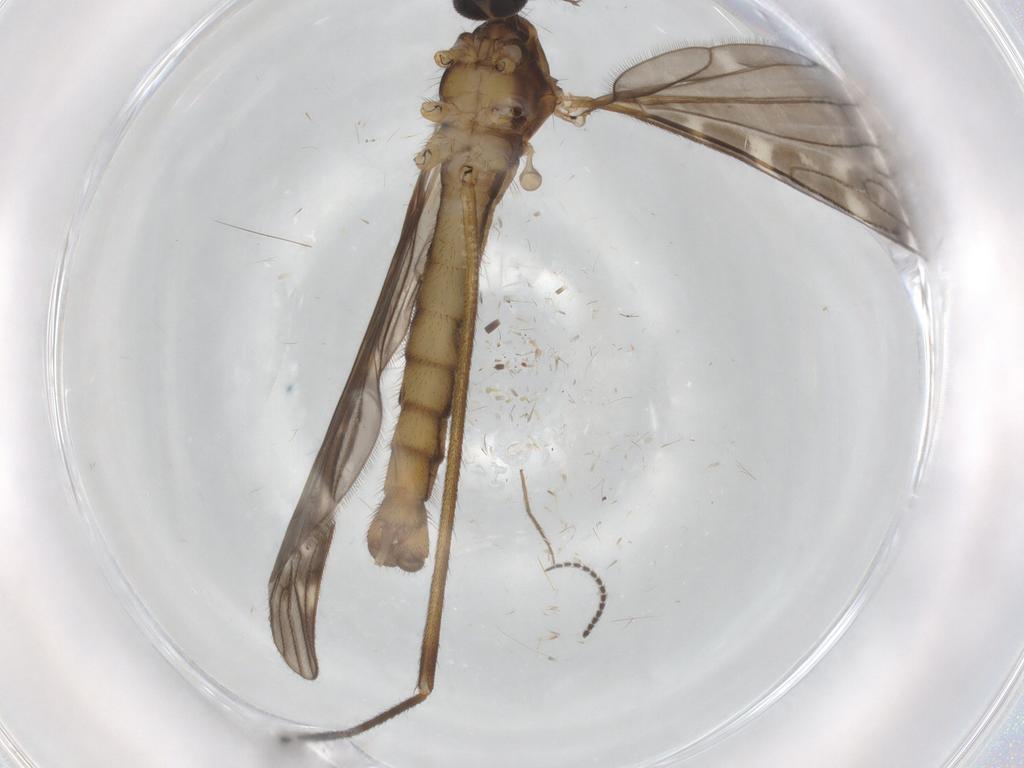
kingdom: Animalia
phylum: Arthropoda
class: Insecta
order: Diptera
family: Dolichopodidae
